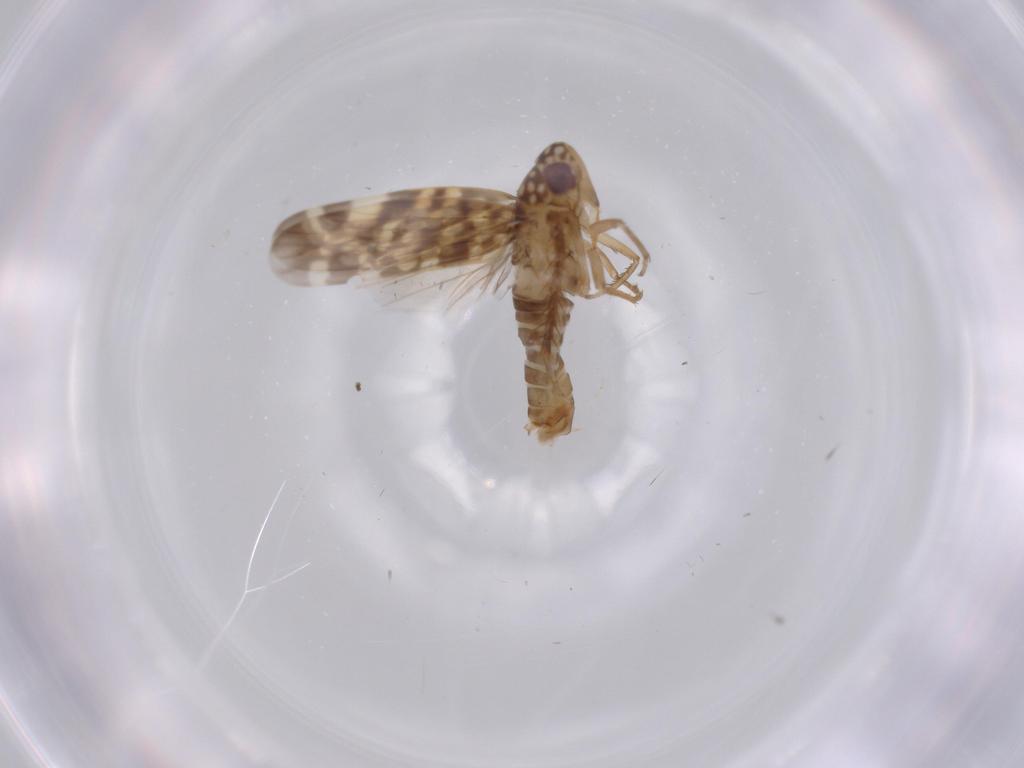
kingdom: Animalia
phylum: Arthropoda
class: Insecta
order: Hemiptera
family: Cicadellidae
